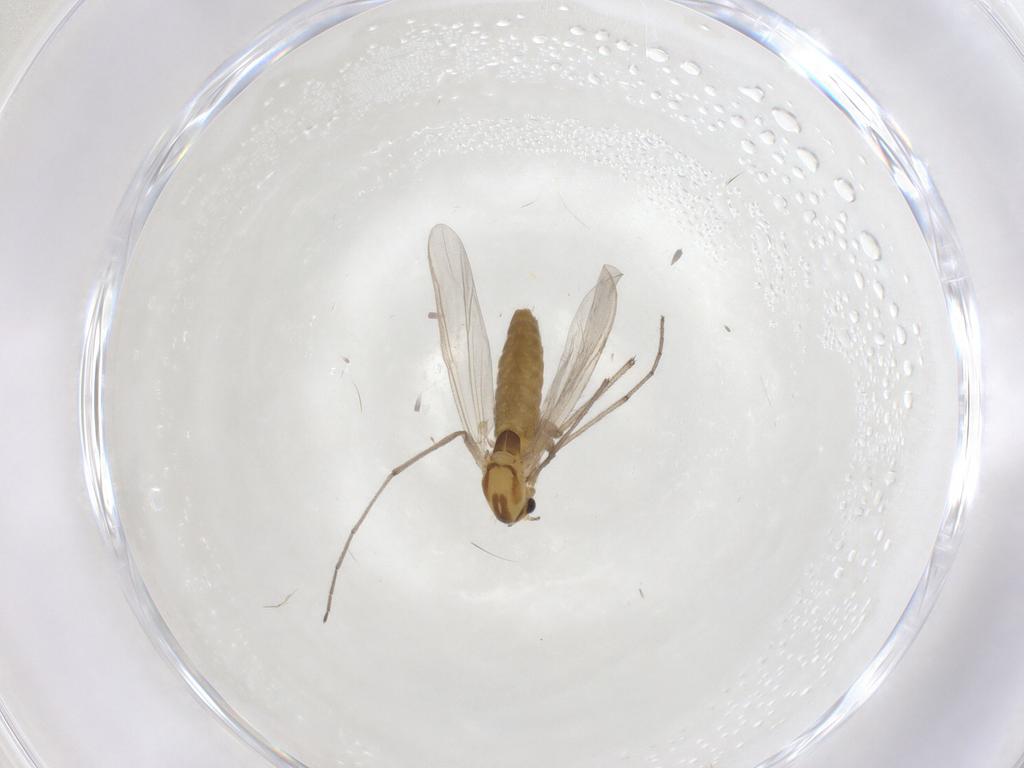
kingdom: Animalia
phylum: Arthropoda
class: Insecta
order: Diptera
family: Chironomidae
